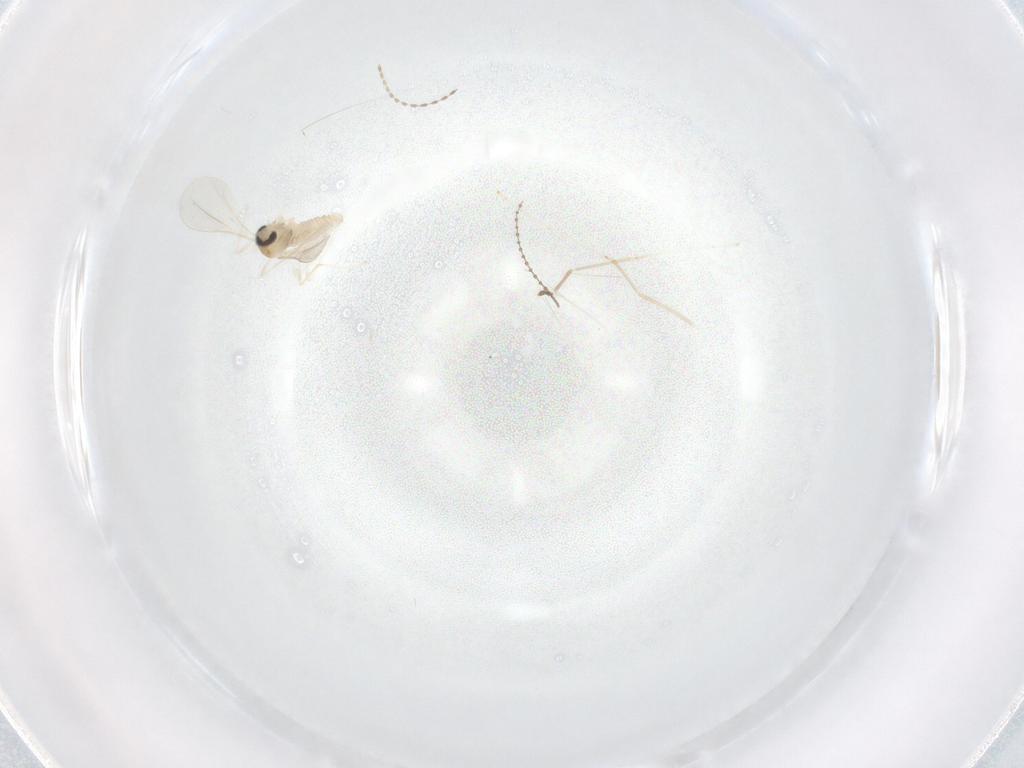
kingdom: Animalia
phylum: Arthropoda
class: Insecta
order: Diptera
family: Cecidomyiidae
